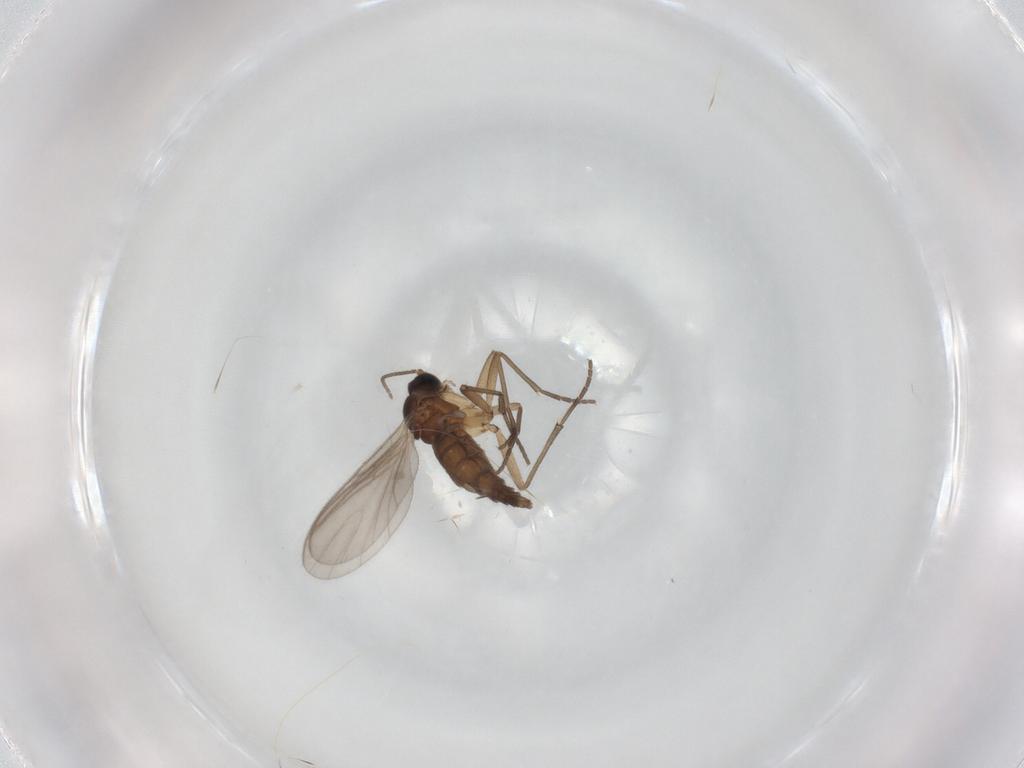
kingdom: Animalia
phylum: Arthropoda
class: Insecta
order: Diptera
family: Sciaridae
